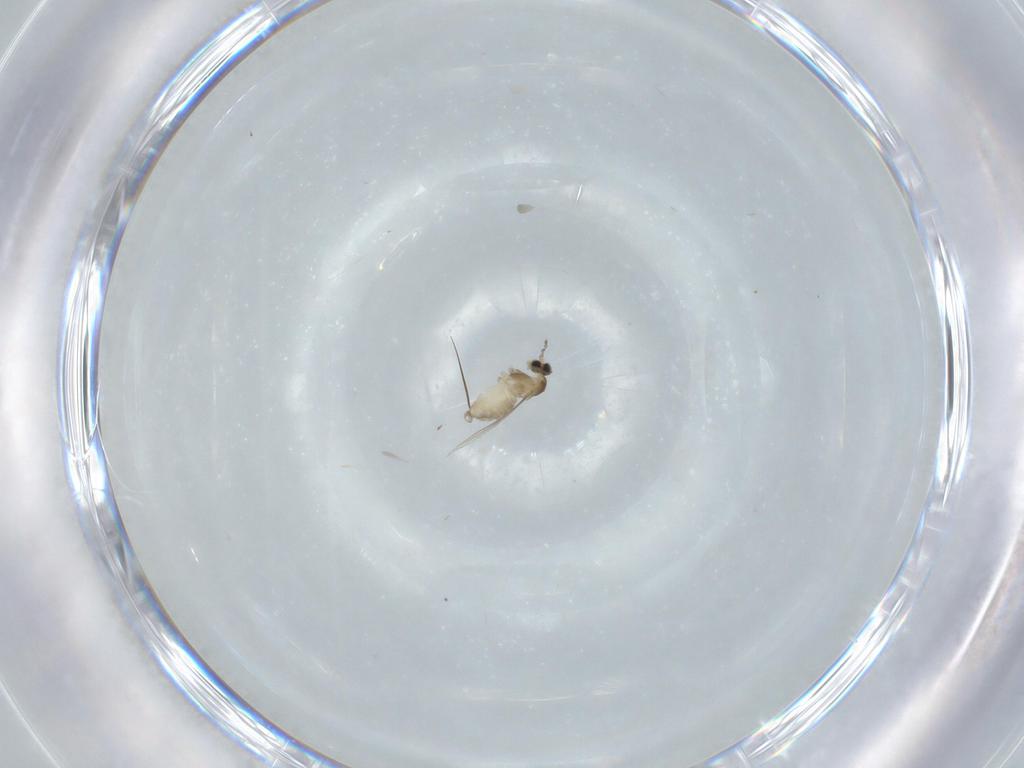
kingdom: Animalia
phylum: Arthropoda
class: Insecta
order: Diptera
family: Cecidomyiidae
